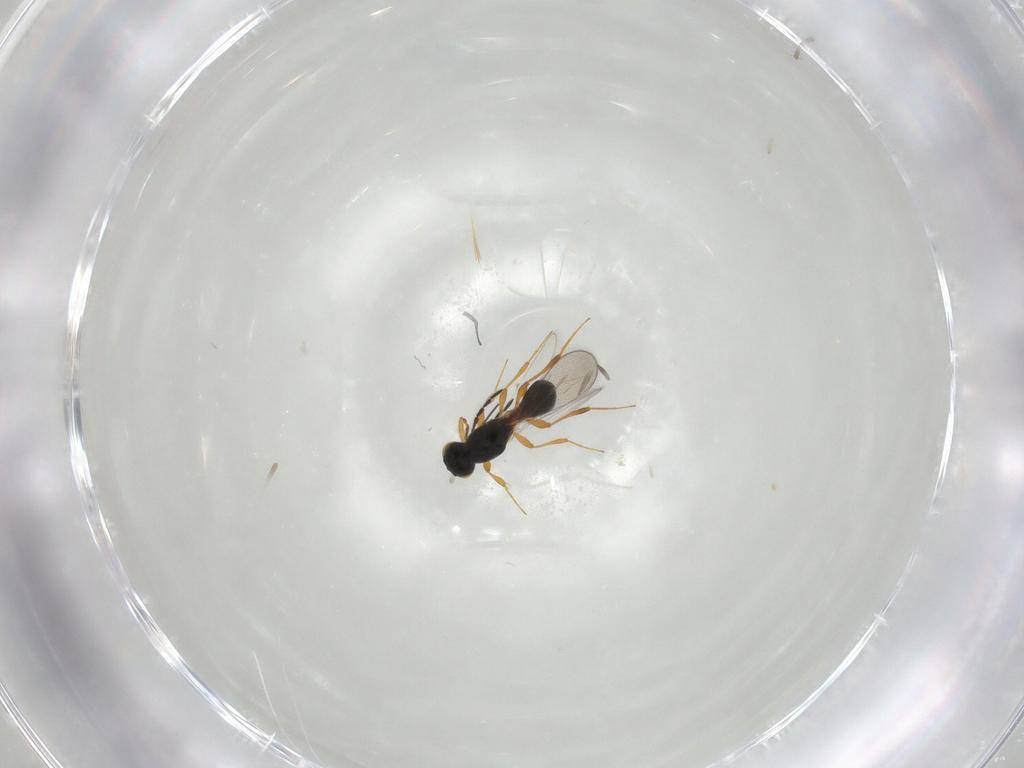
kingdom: Animalia
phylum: Arthropoda
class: Insecta
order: Hymenoptera
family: Platygastridae
